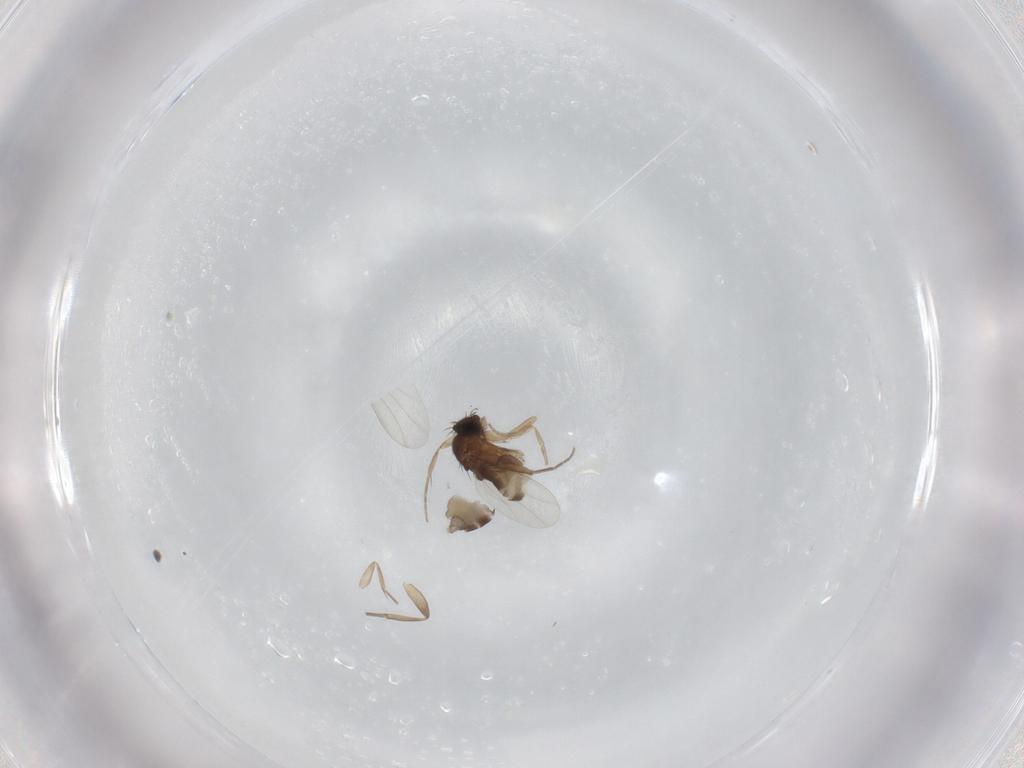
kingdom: Animalia
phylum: Arthropoda
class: Insecta
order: Diptera
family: Phoridae
